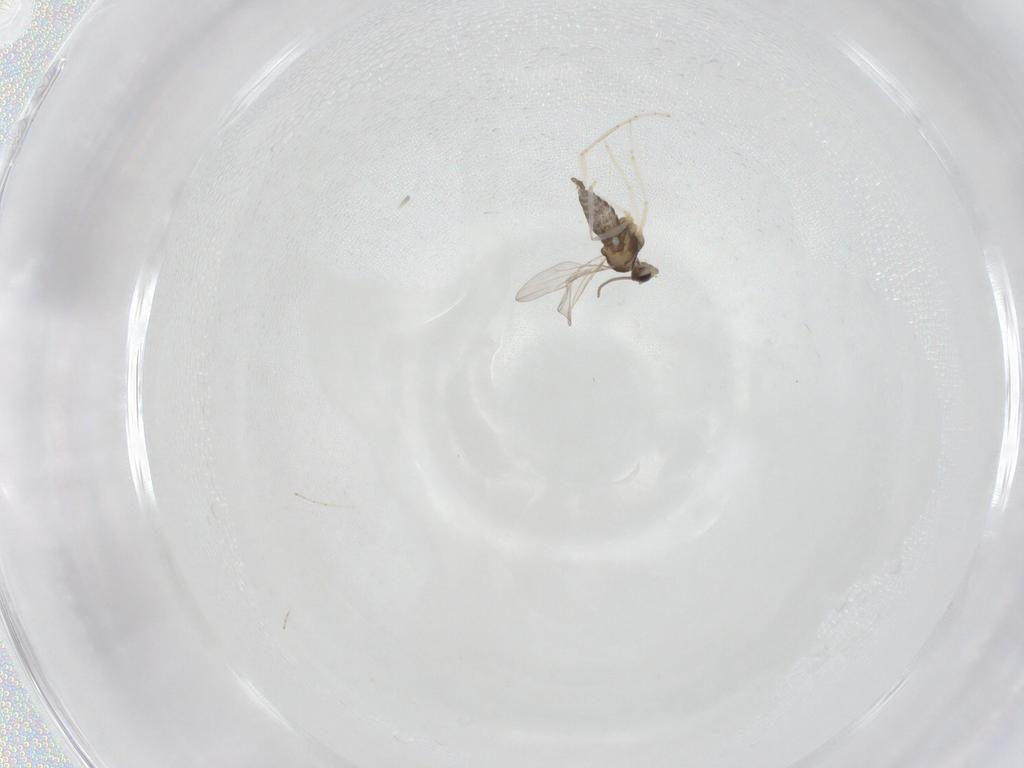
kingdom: Animalia
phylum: Arthropoda
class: Insecta
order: Diptera
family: Cecidomyiidae
